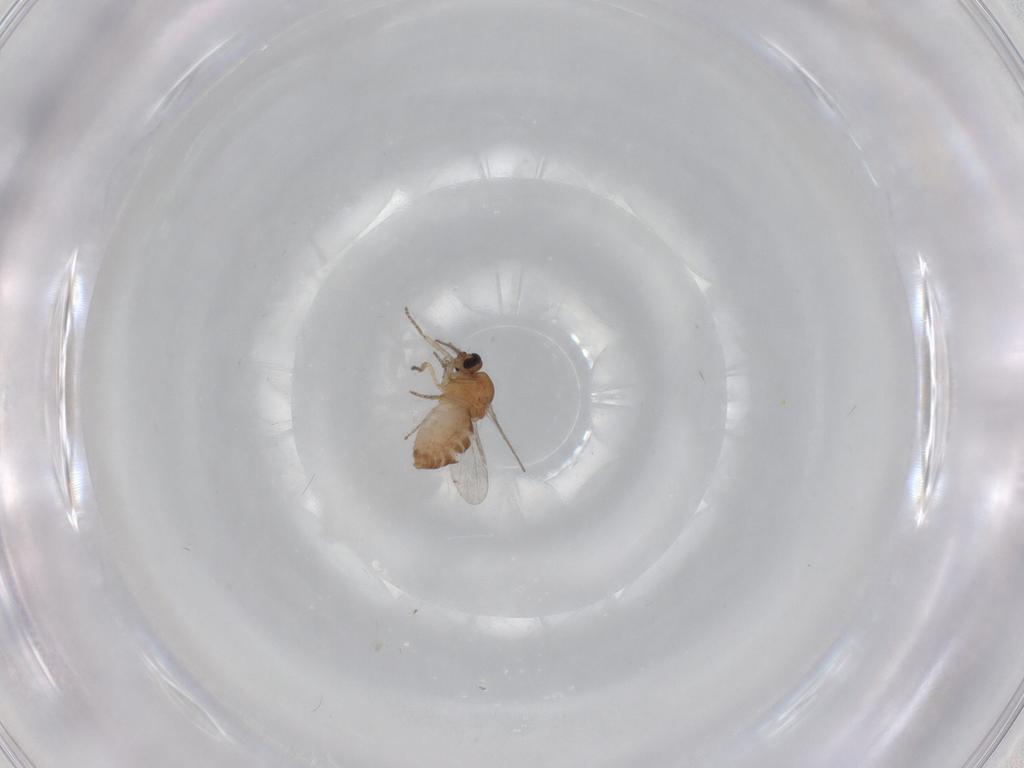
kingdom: Animalia
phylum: Arthropoda
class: Insecta
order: Diptera
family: Ceratopogonidae
